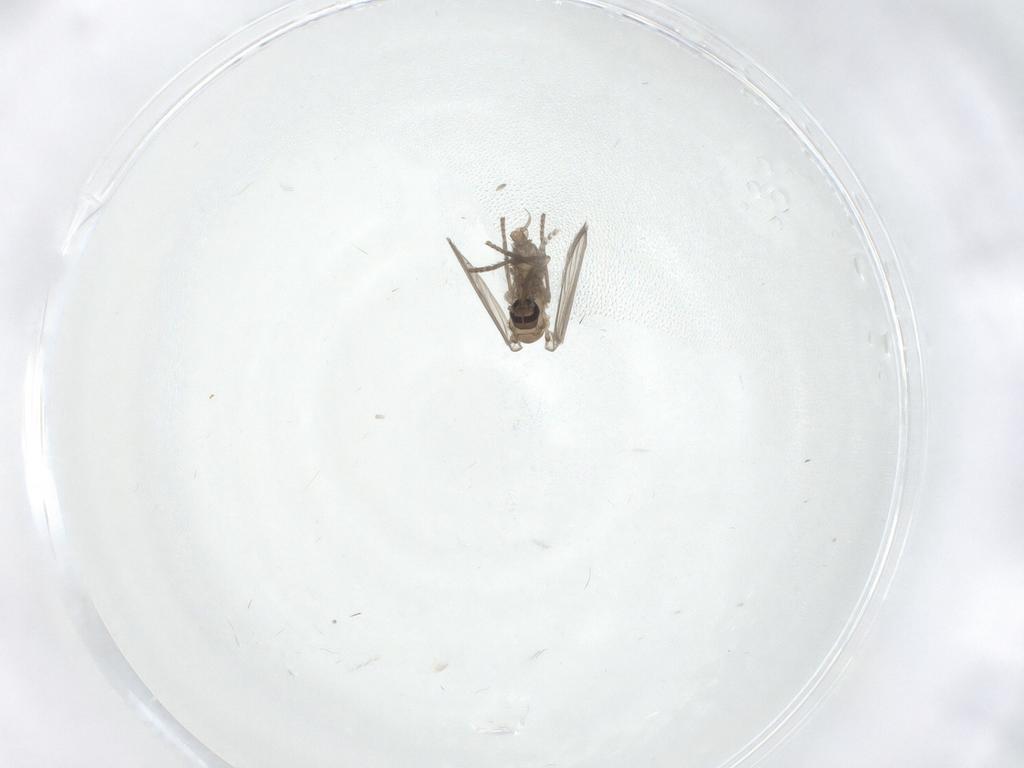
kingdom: Animalia
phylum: Arthropoda
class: Insecta
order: Diptera
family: Psychodidae
